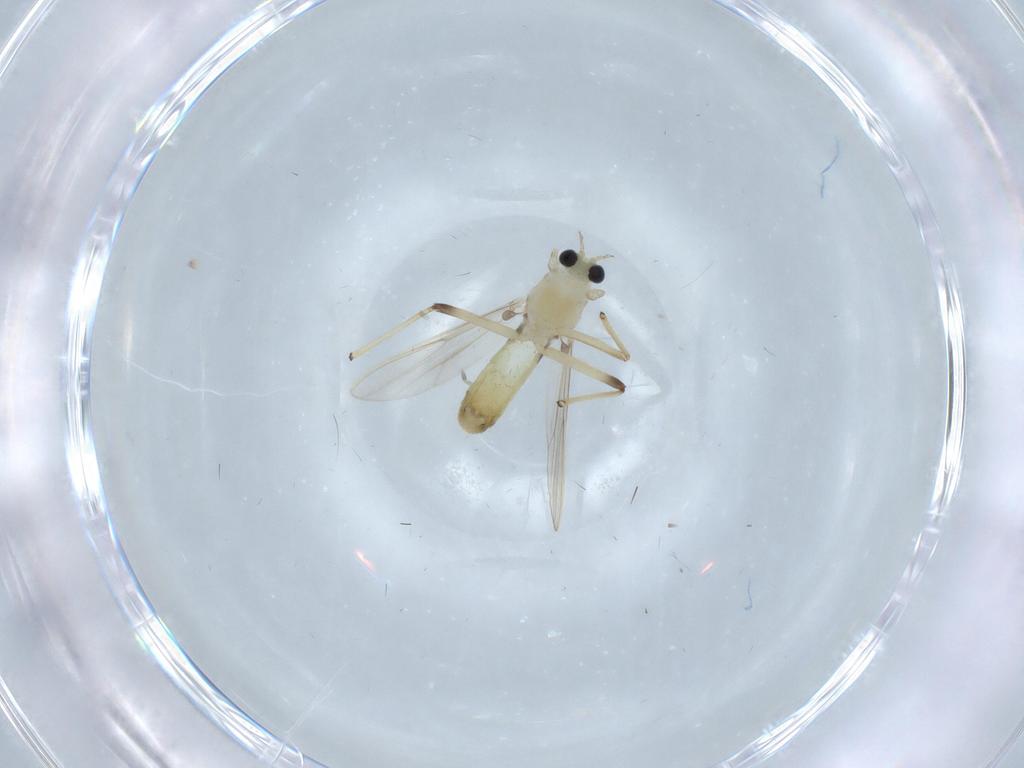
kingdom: Animalia
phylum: Arthropoda
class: Insecta
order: Diptera
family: Chironomidae
